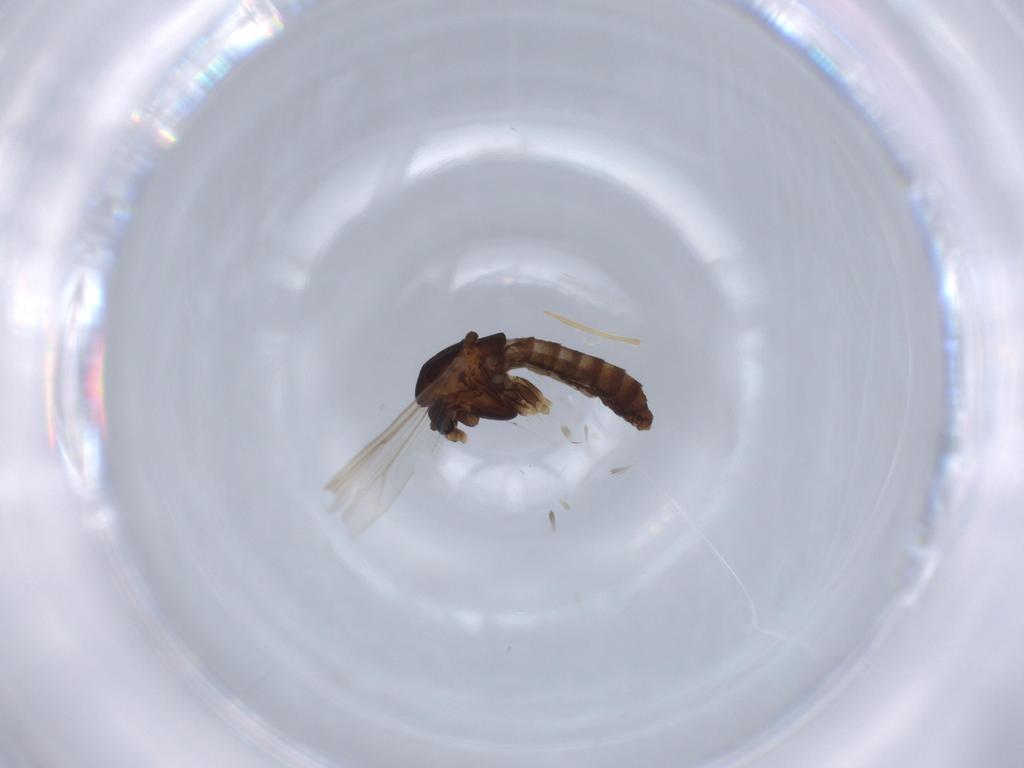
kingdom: Animalia
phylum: Arthropoda
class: Insecta
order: Diptera
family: Chironomidae
